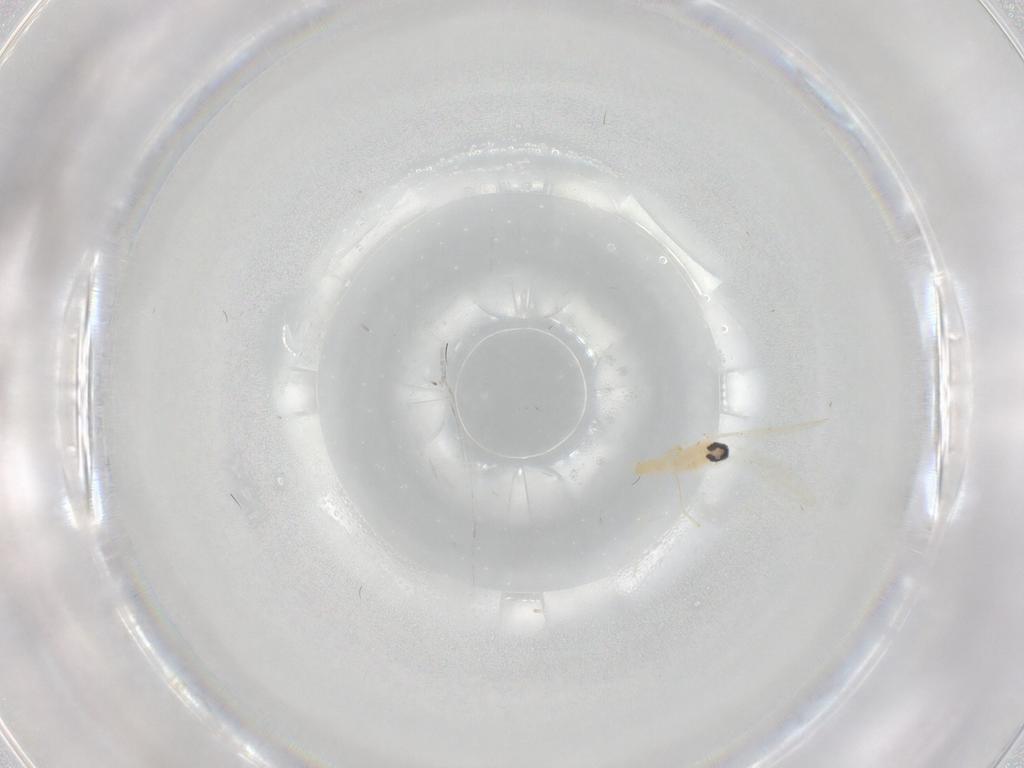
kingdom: Animalia
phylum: Arthropoda
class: Insecta
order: Diptera
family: Cecidomyiidae
